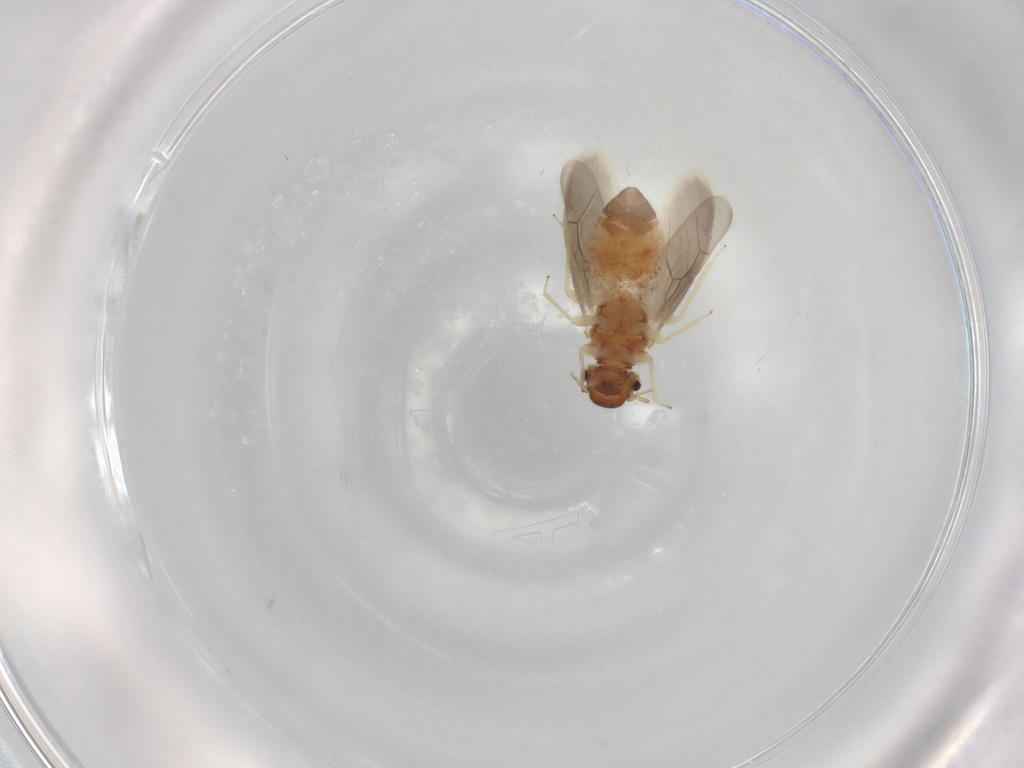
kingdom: Animalia
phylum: Arthropoda
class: Insecta
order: Psocodea
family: Archipsocidae
